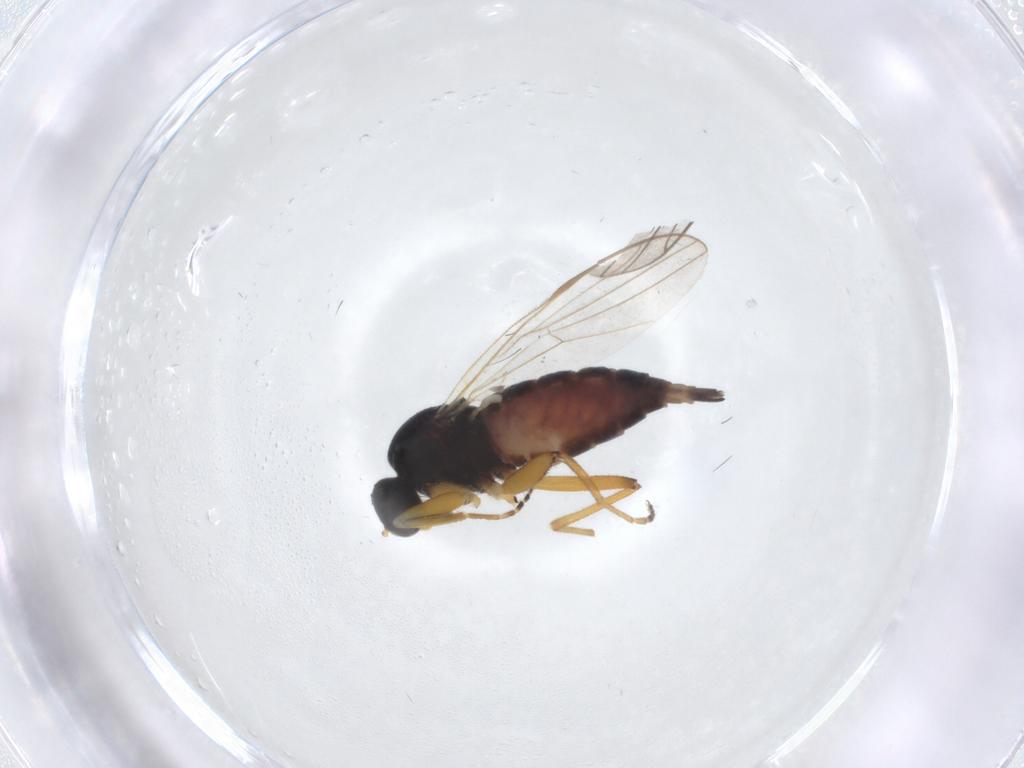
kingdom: Animalia
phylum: Arthropoda
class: Insecta
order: Diptera
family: Hybotidae
